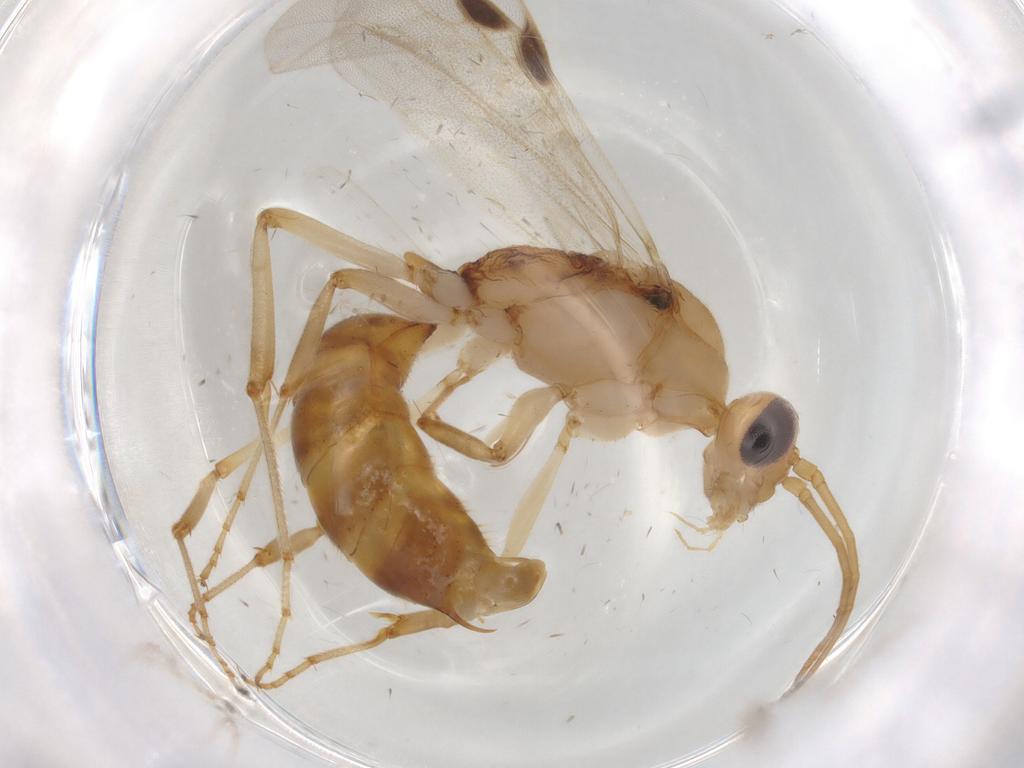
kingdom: Animalia
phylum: Arthropoda
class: Insecta
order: Hymenoptera
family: Formicidae
